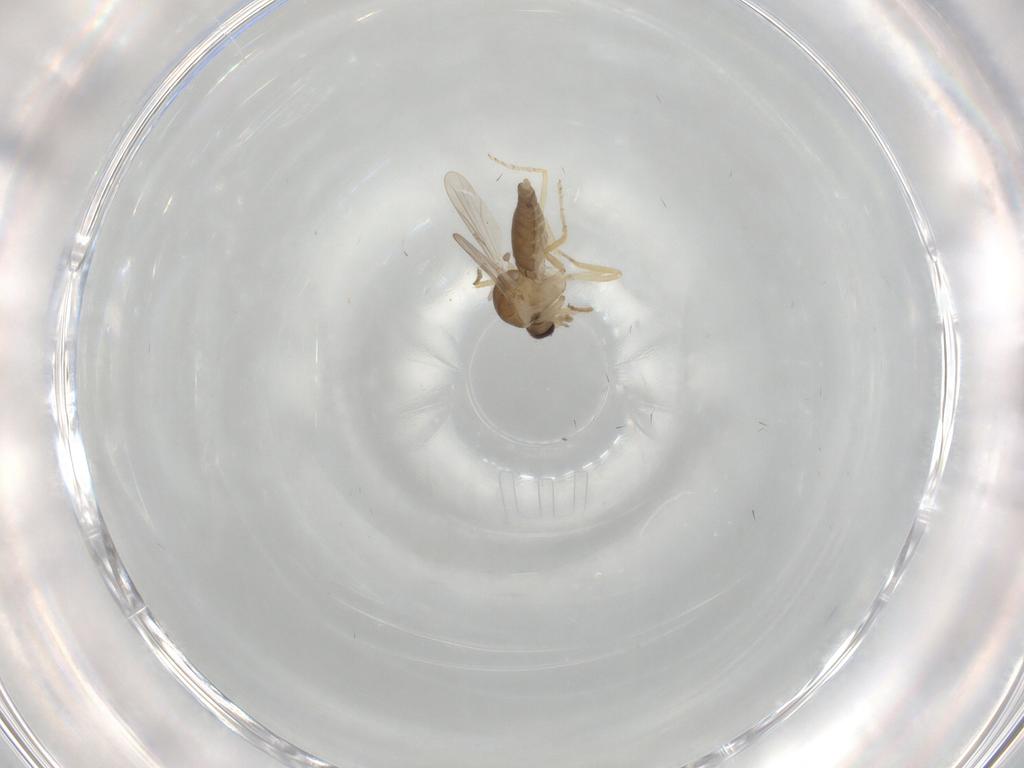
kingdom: Animalia
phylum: Arthropoda
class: Insecta
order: Diptera
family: Ceratopogonidae
